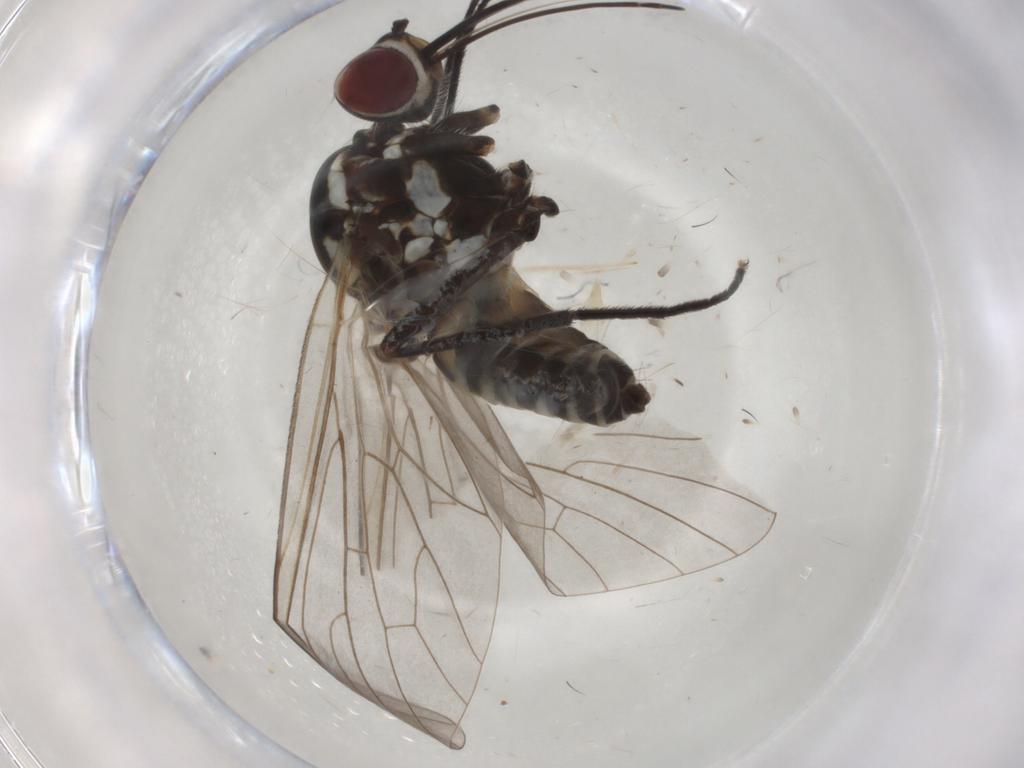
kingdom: Animalia
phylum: Arthropoda
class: Insecta
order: Diptera
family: Bombyliidae
